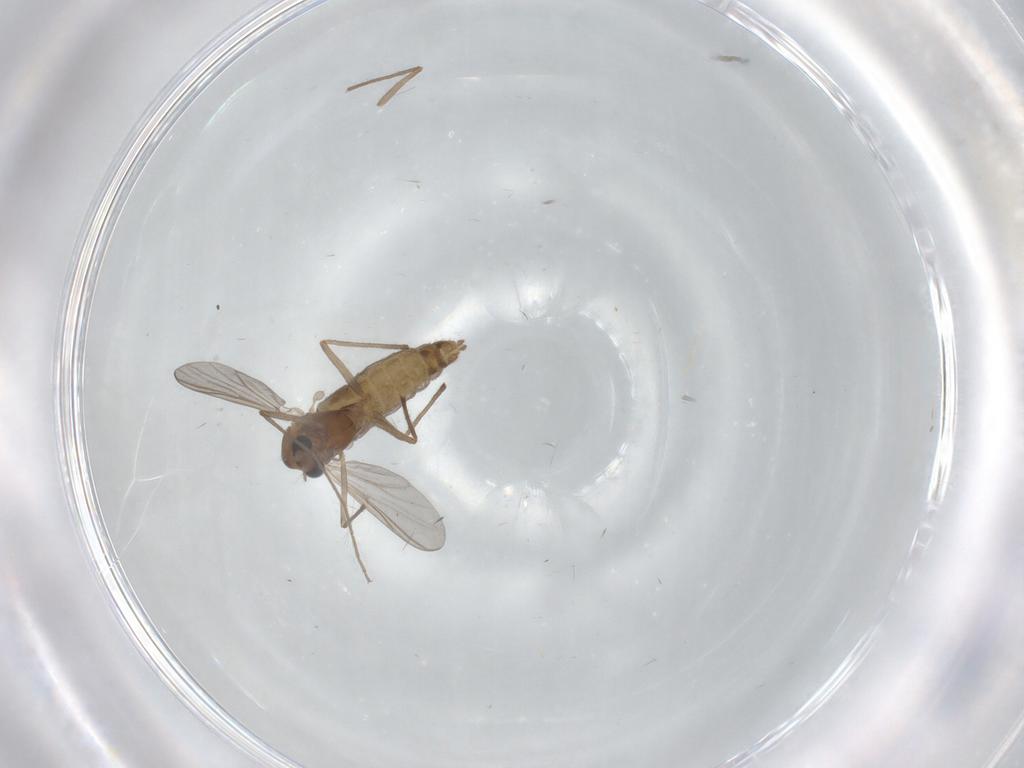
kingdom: Animalia
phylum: Arthropoda
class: Insecta
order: Diptera
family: Chironomidae
